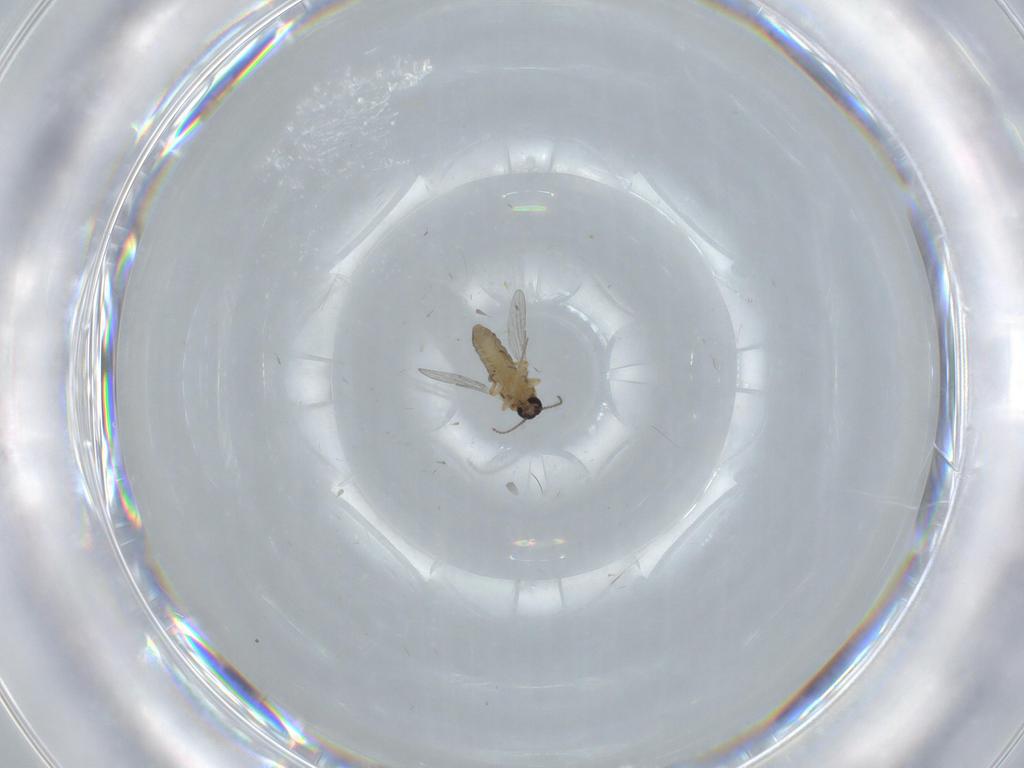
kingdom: Animalia
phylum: Arthropoda
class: Insecta
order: Diptera
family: Ceratopogonidae
